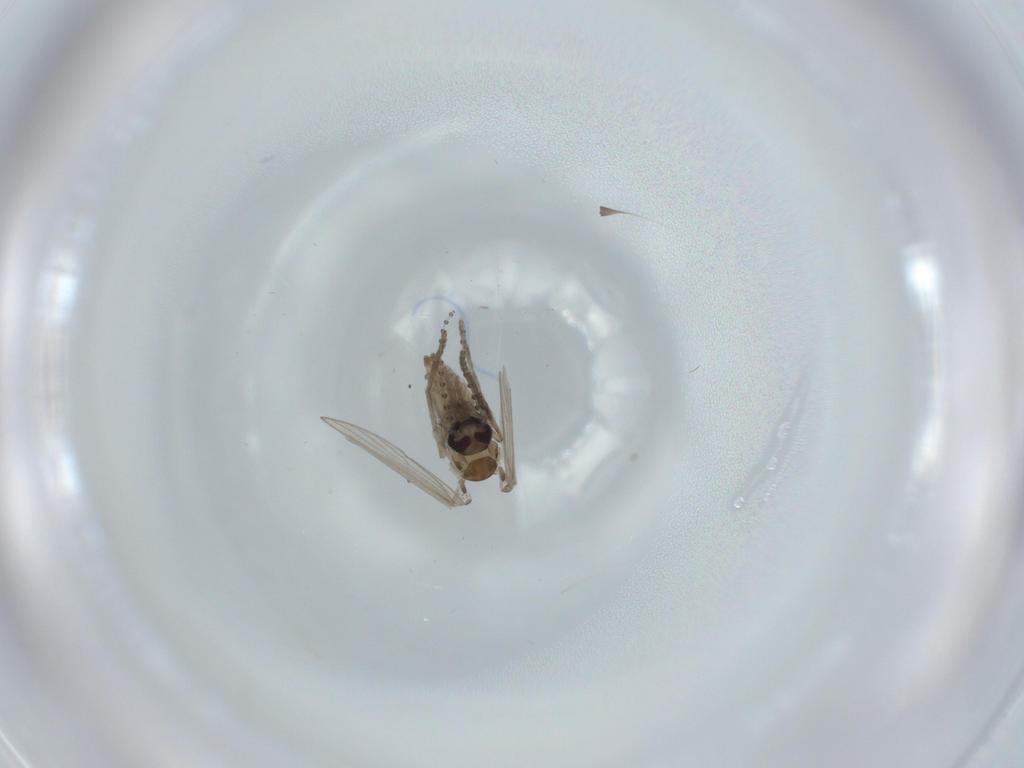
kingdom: Animalia
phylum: Arthropoda
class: Insecta
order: Diptera
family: Psychodidae
